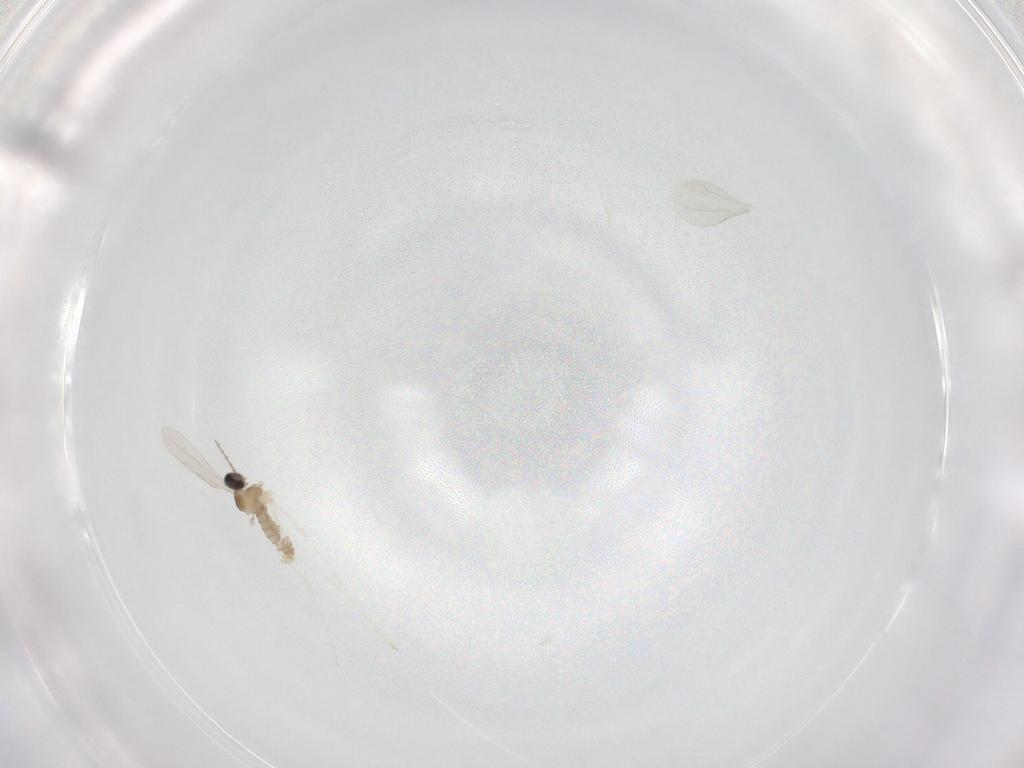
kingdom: Animalia
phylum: Arthropoda
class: Insecta
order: Diptera
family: Cecidomyiidae
